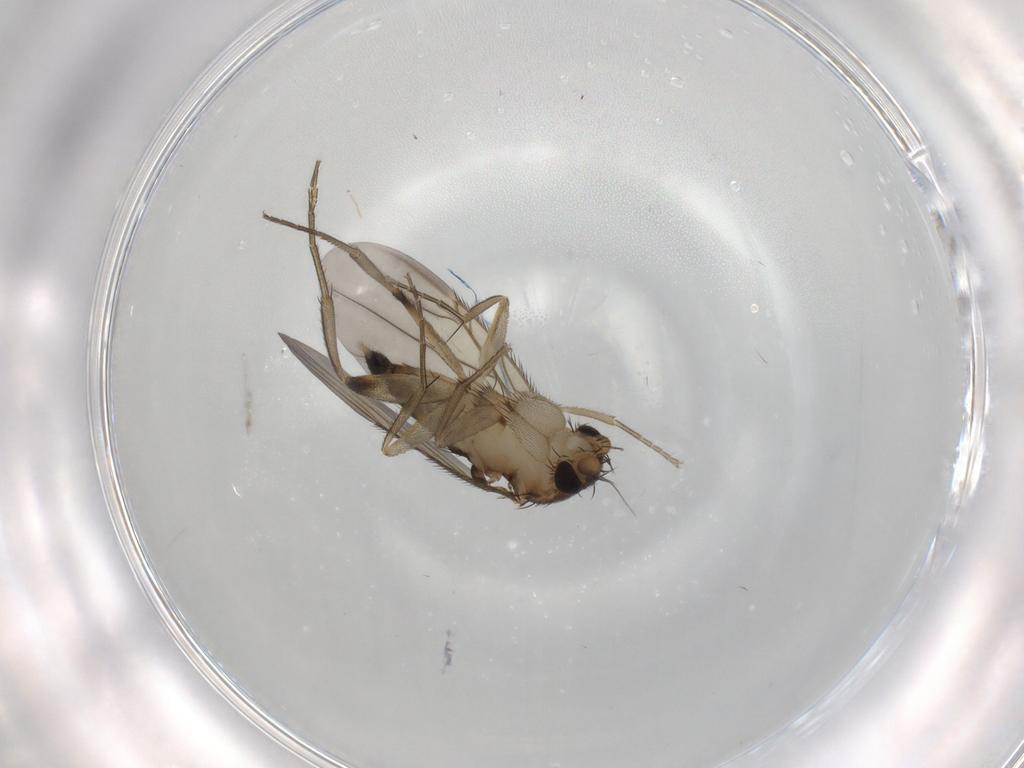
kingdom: Animalia
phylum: Arthropoda
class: Insecta
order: Diptera
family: Phoridae
